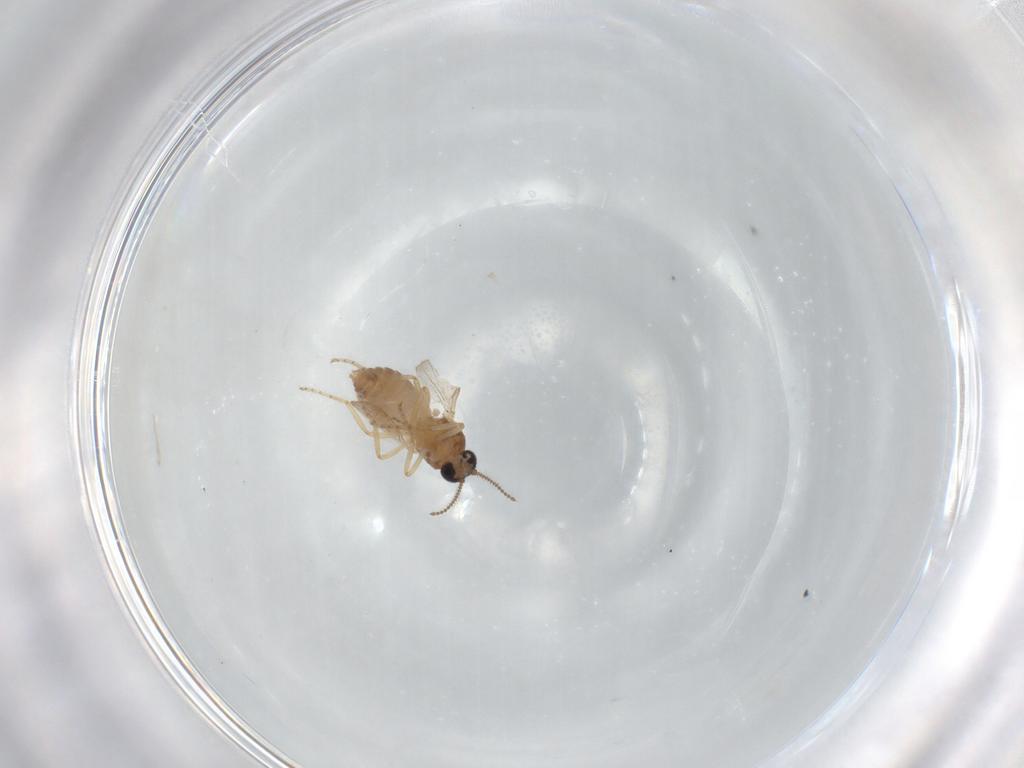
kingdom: Animalia
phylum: Arthropoda
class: Insecta
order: Diptera
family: Ceratopogonidae
